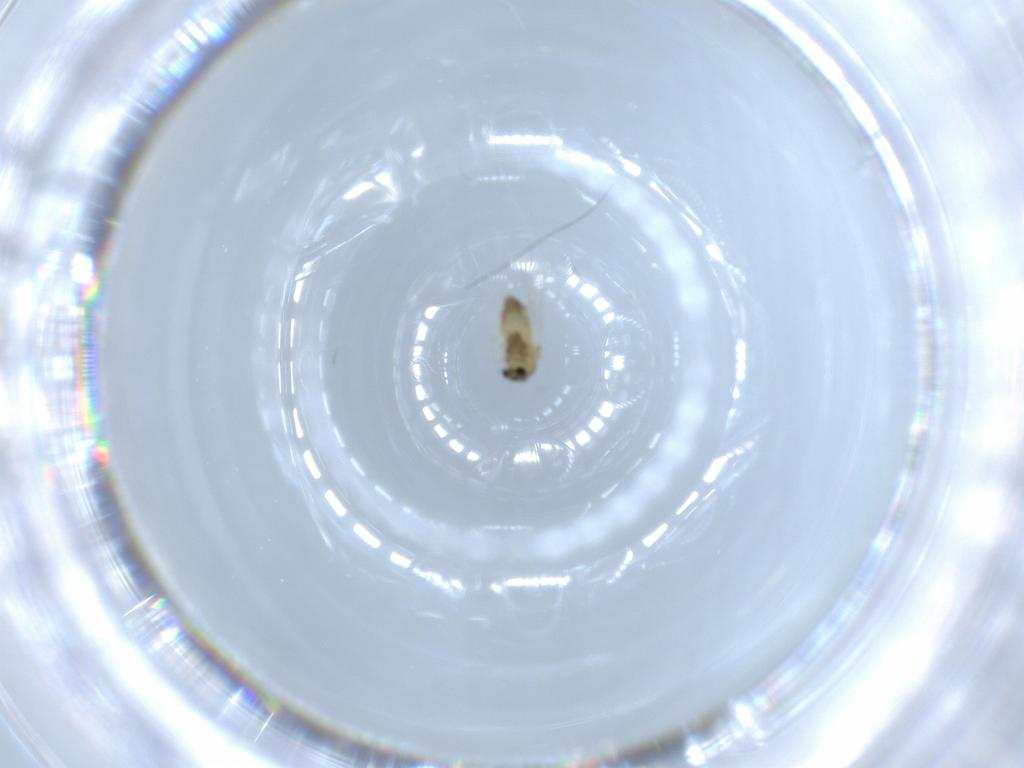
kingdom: Animalia
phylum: Arthropoda
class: Insecta
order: Diptera
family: Chironomidae
